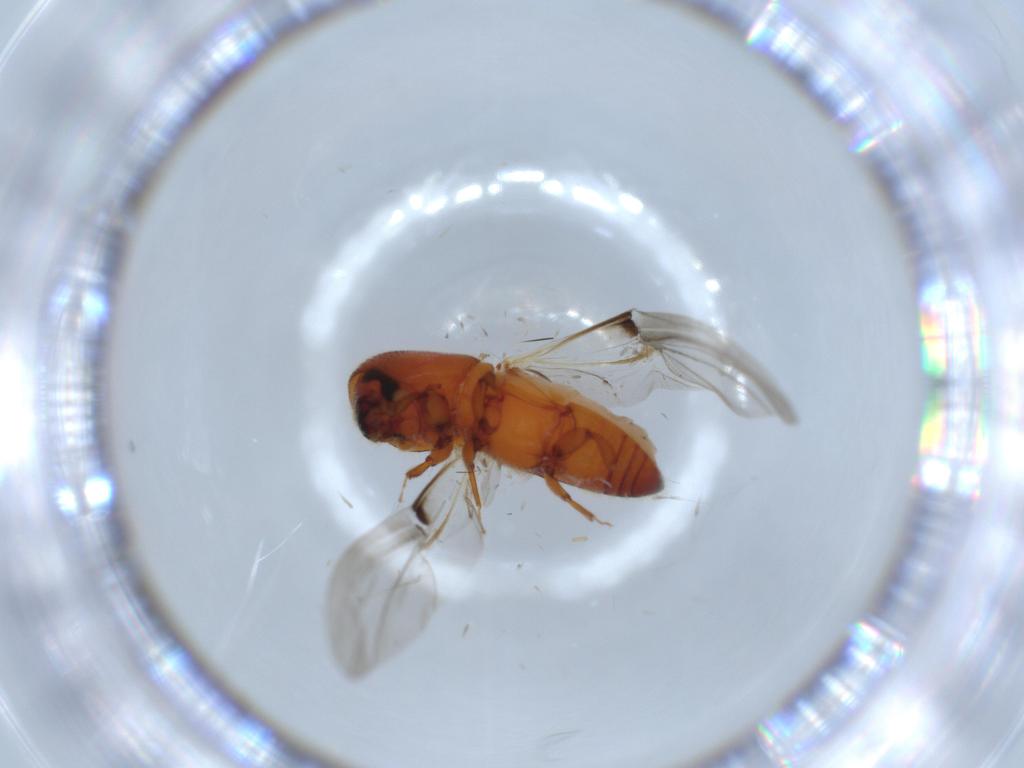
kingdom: Animalia
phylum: Arthropoda
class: Insecta
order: Coleoptera
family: Curculionidae
